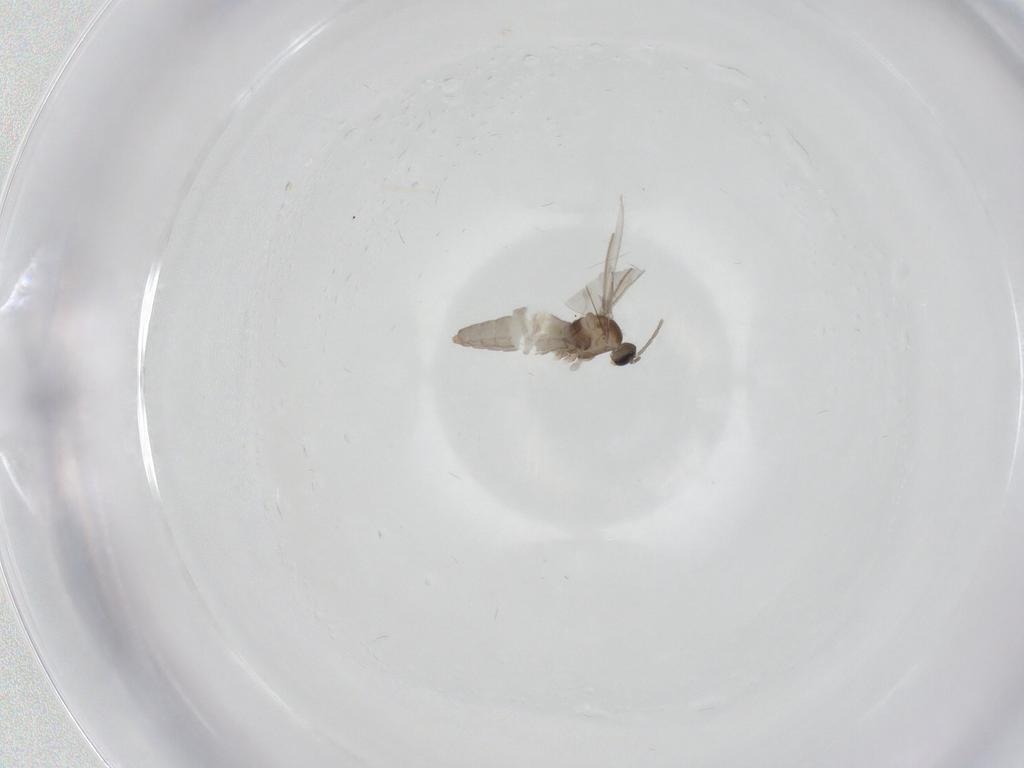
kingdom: Animalia
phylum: Arthropoda
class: Insecta
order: Diptera
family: Cecidomyiidae
